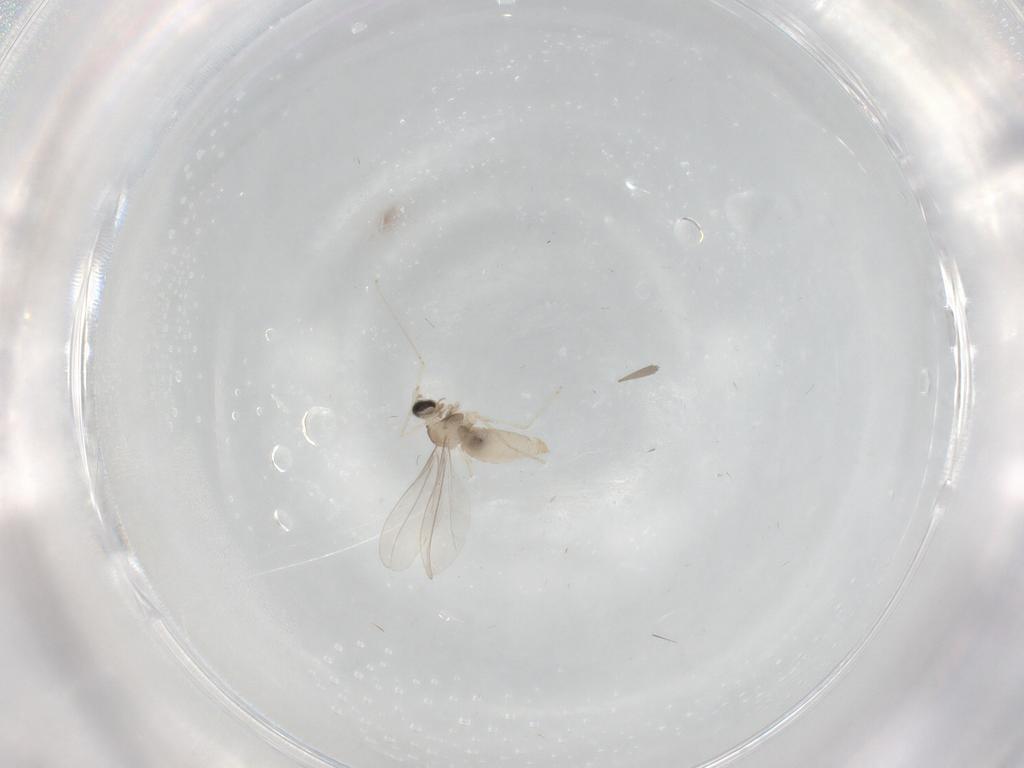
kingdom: Animalia
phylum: Arthropoda
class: Insecta
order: Diptera
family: Cecidomyiidae
